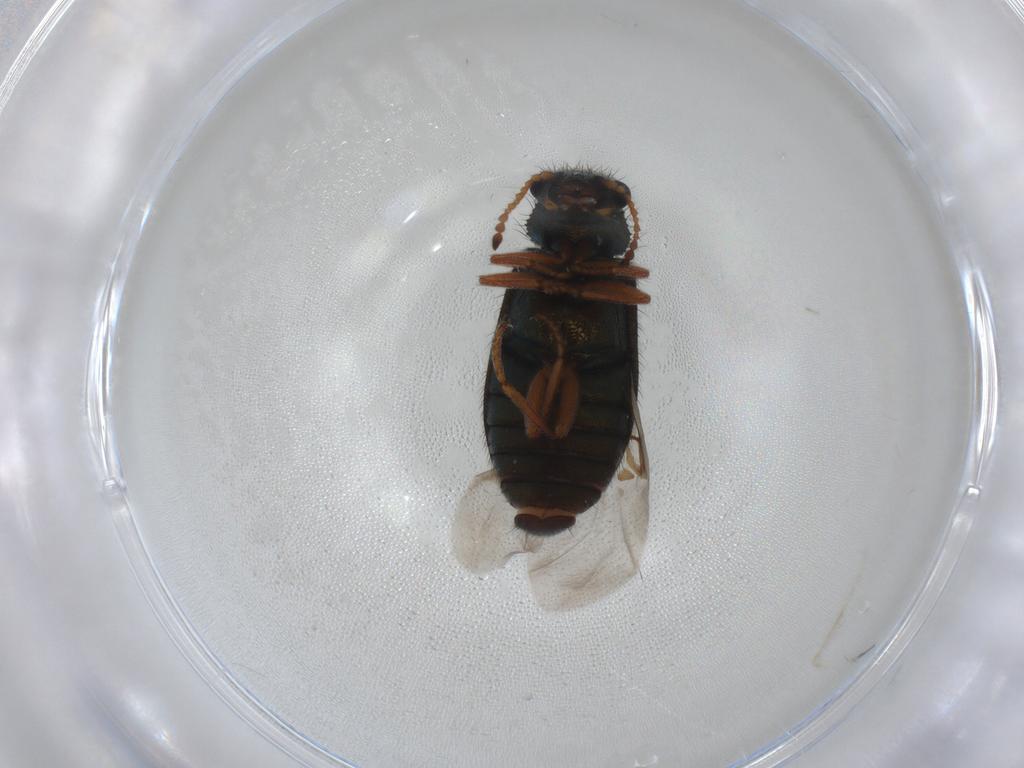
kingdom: Animalia
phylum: Arthropoda
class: Insecta
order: Coleoptera
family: Melyridae
